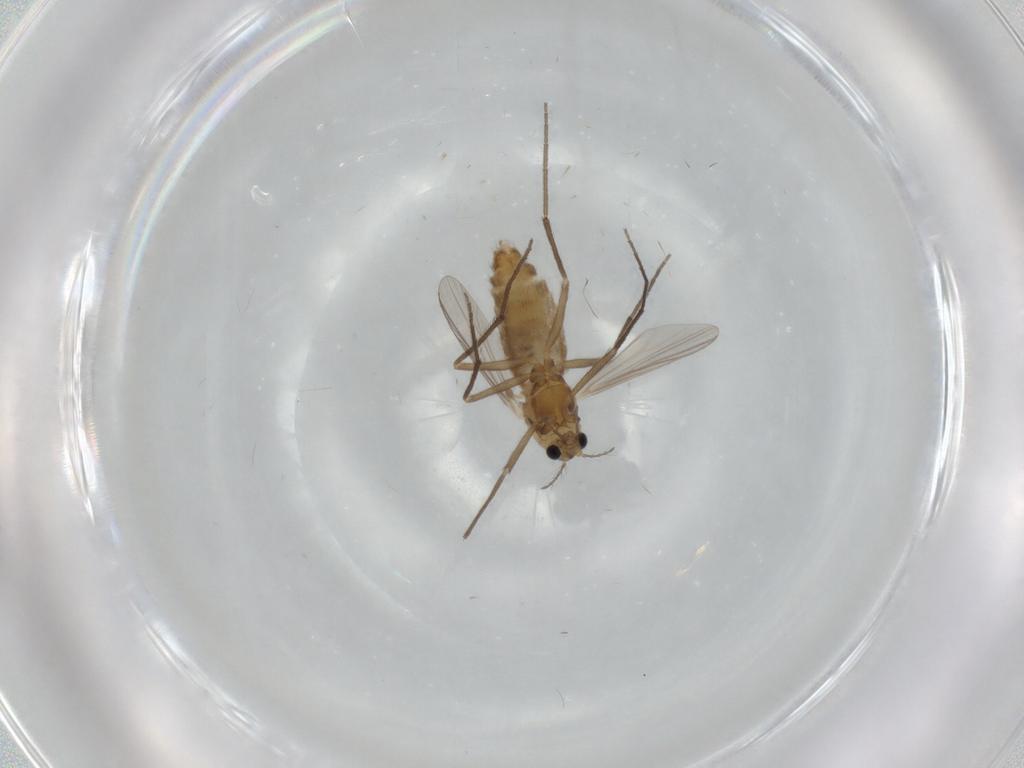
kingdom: Animalia
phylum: Arthropoda
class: Insecta
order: Diptera
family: Chironomidae
